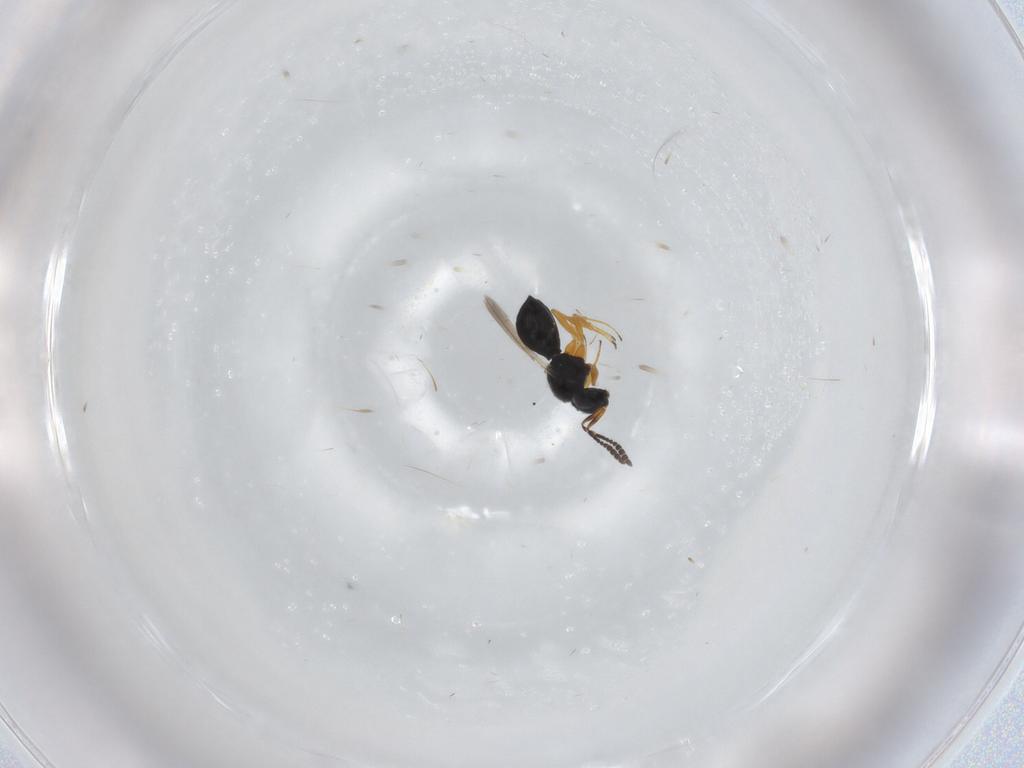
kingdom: Animalia
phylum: Arthropoda
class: Insecta
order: Hymenoptera
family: Scelionidae
